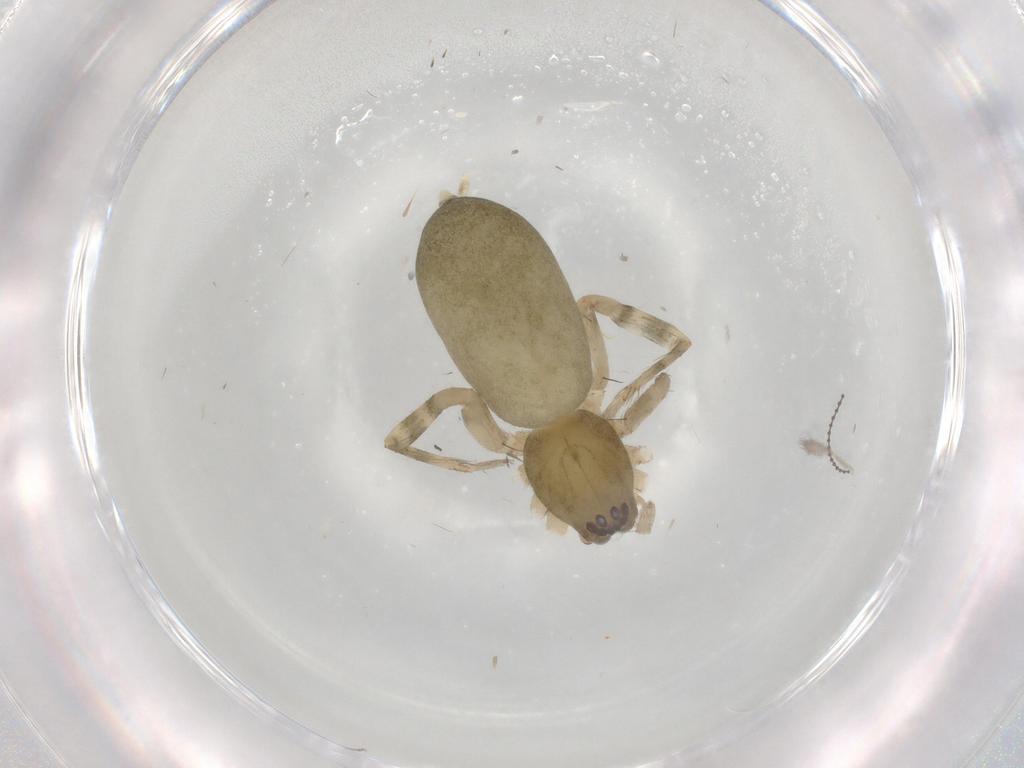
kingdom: Animalia
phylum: Arthropoda
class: Arachnida
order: Araneae
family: Anyphaenidae
